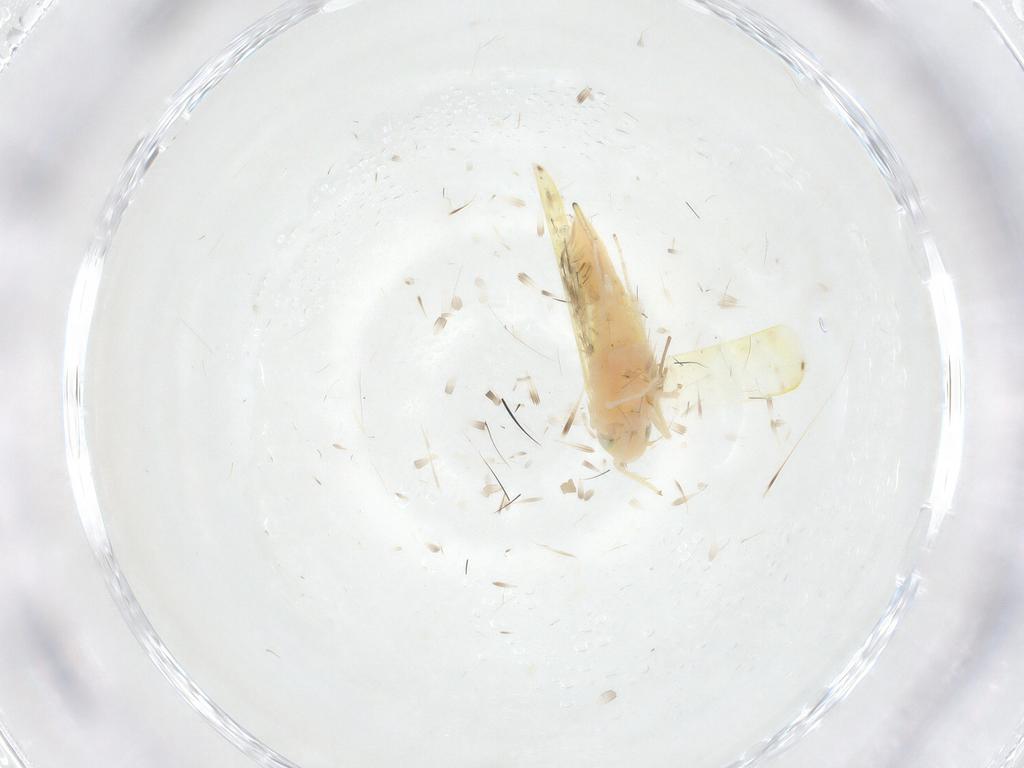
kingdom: Animalia
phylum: Arthropoda
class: Insecta
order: Hemiptera
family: Cicadellidae
